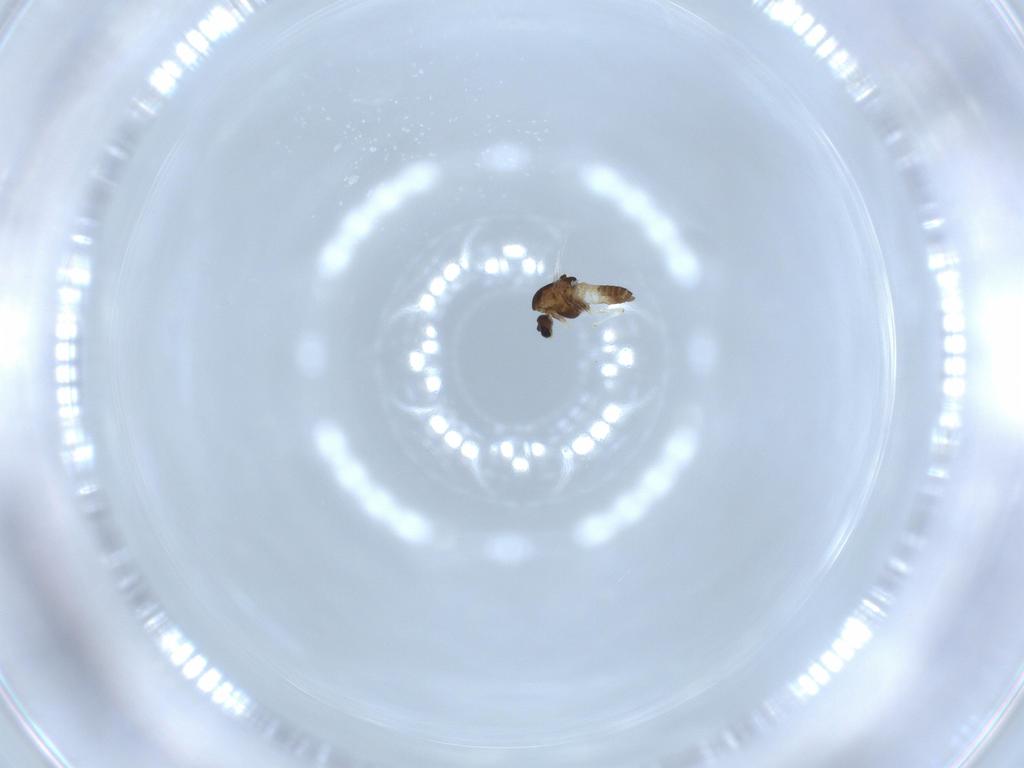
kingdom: Animalia
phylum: Arthropoda
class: Insecta
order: Diptera
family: Chironomidae
